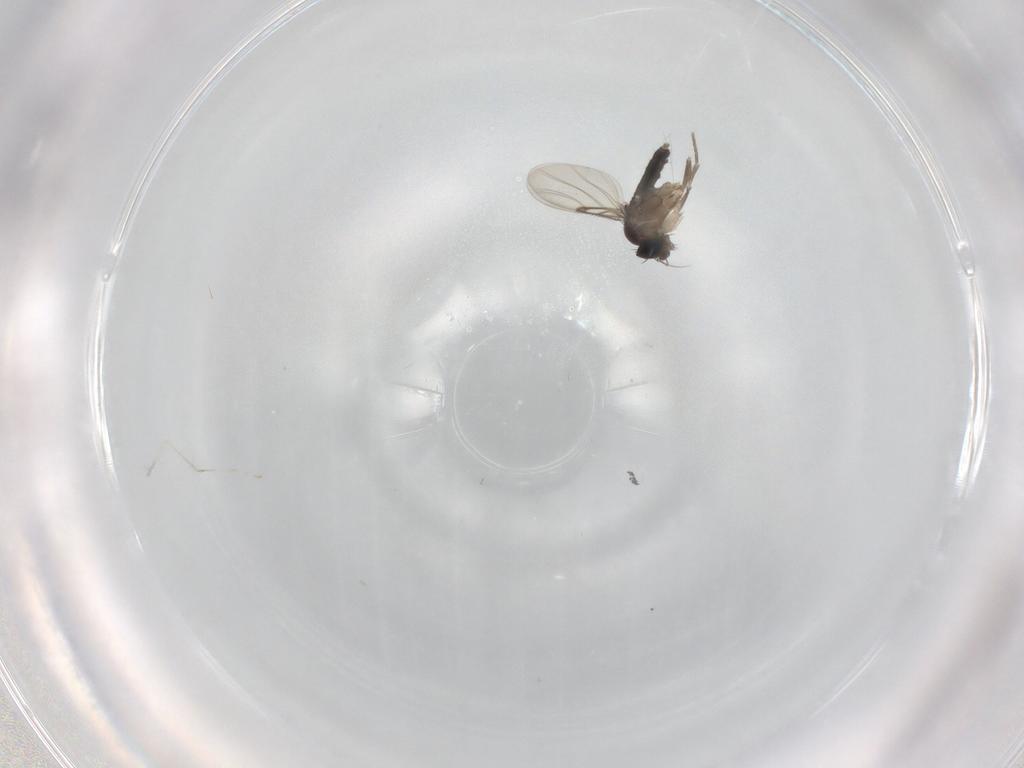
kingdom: Animalia
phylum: Arthropoda
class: Insecta
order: Diptera
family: Phoridae
